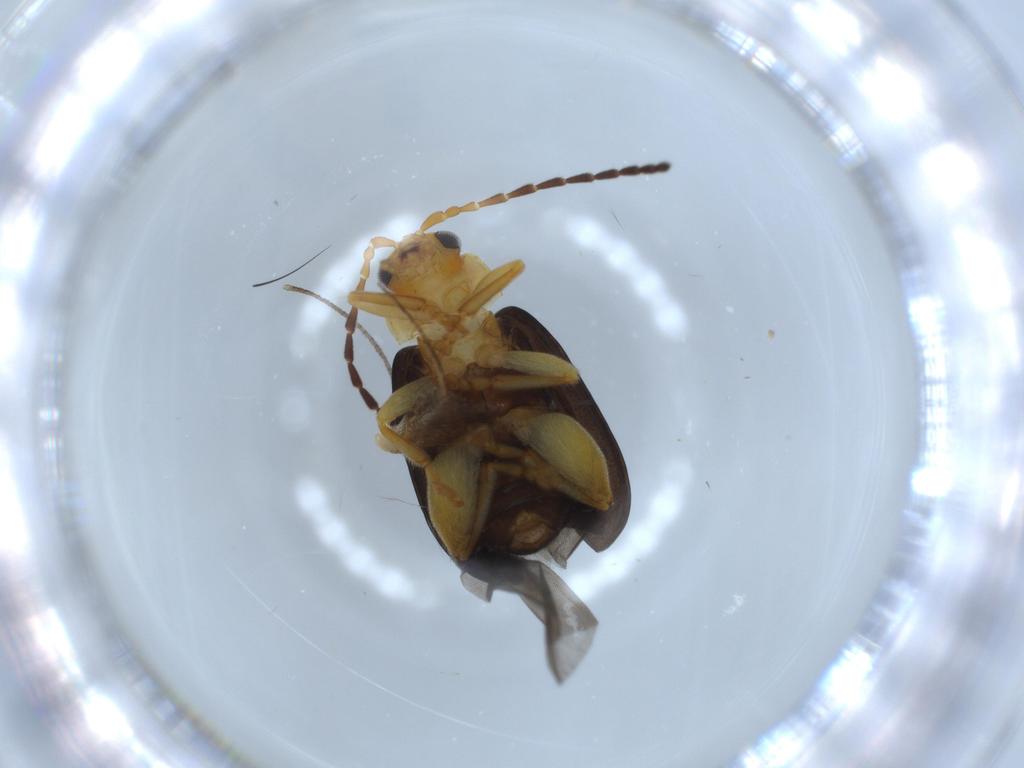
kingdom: Animalia
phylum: Arthropoda
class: Insecta
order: Coleoptera
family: Chrysomelidae
